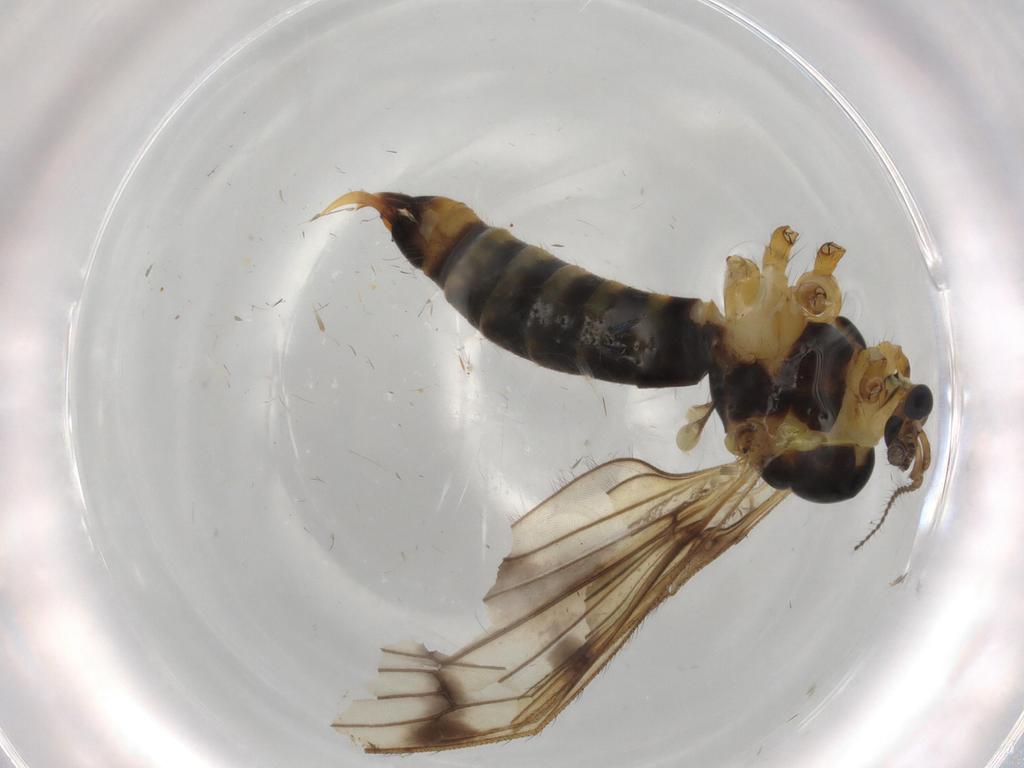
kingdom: Animalia
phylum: Arthropoda
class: Insecta
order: Diptera
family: Limoniidae
